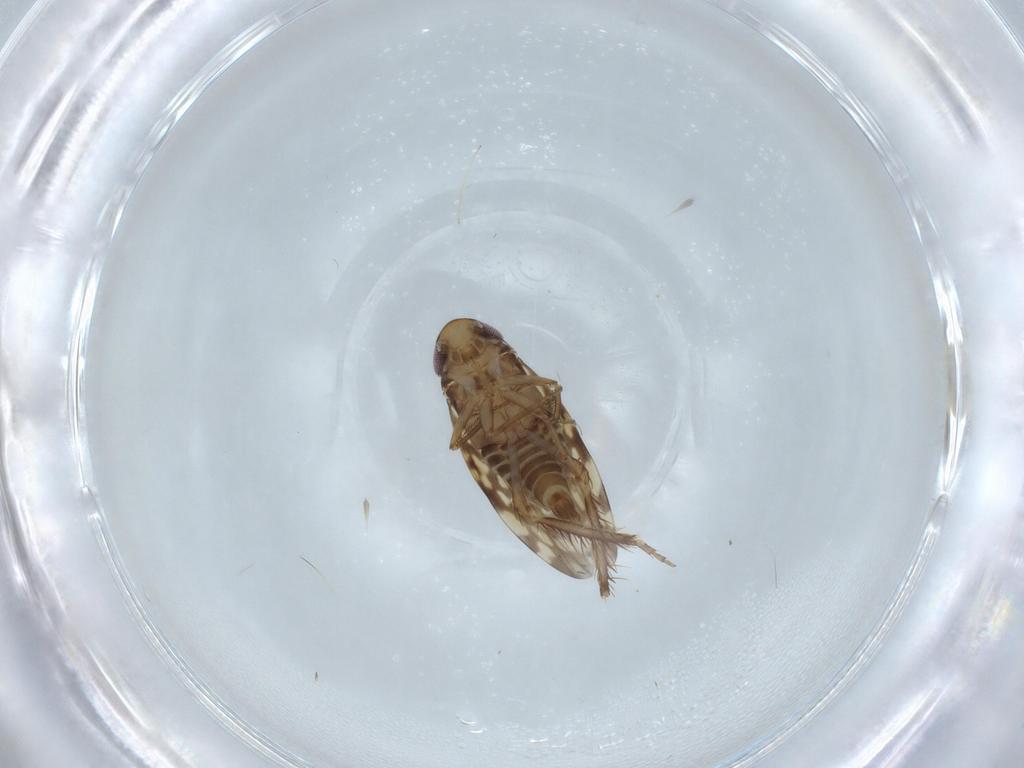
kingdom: Animalia
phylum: Arthropoda
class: Insecta
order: Hemiptera
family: Cicadellidae
